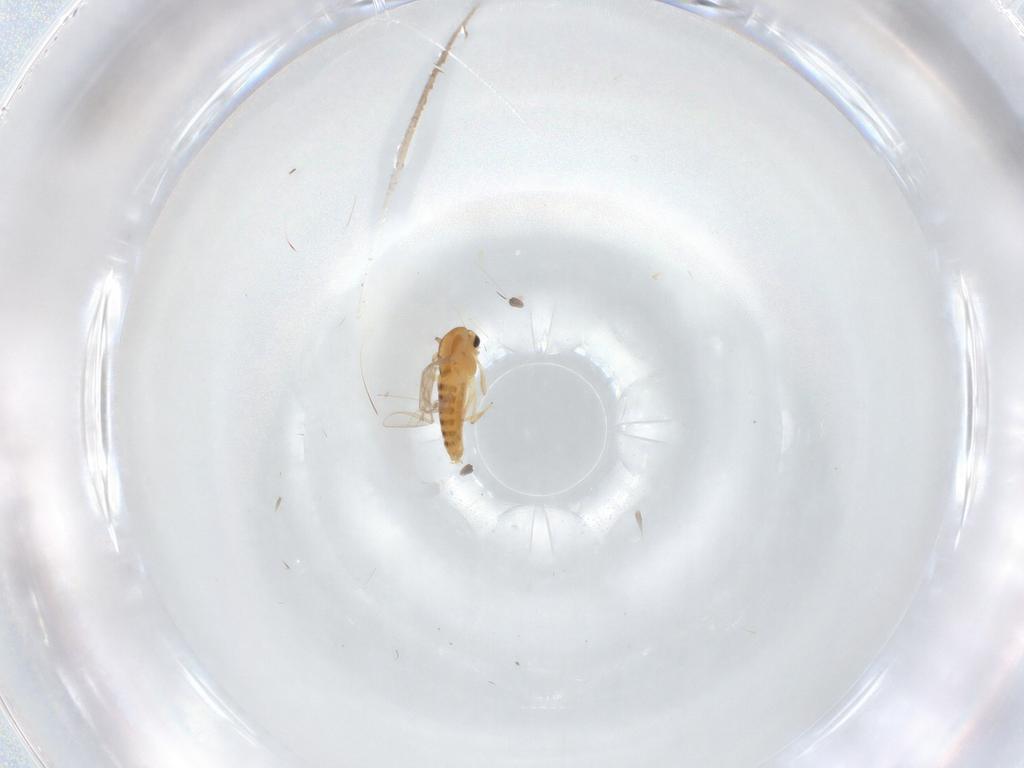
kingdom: Animalia
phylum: Arthropoda
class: Insecta
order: Diptera
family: Chironomidae
